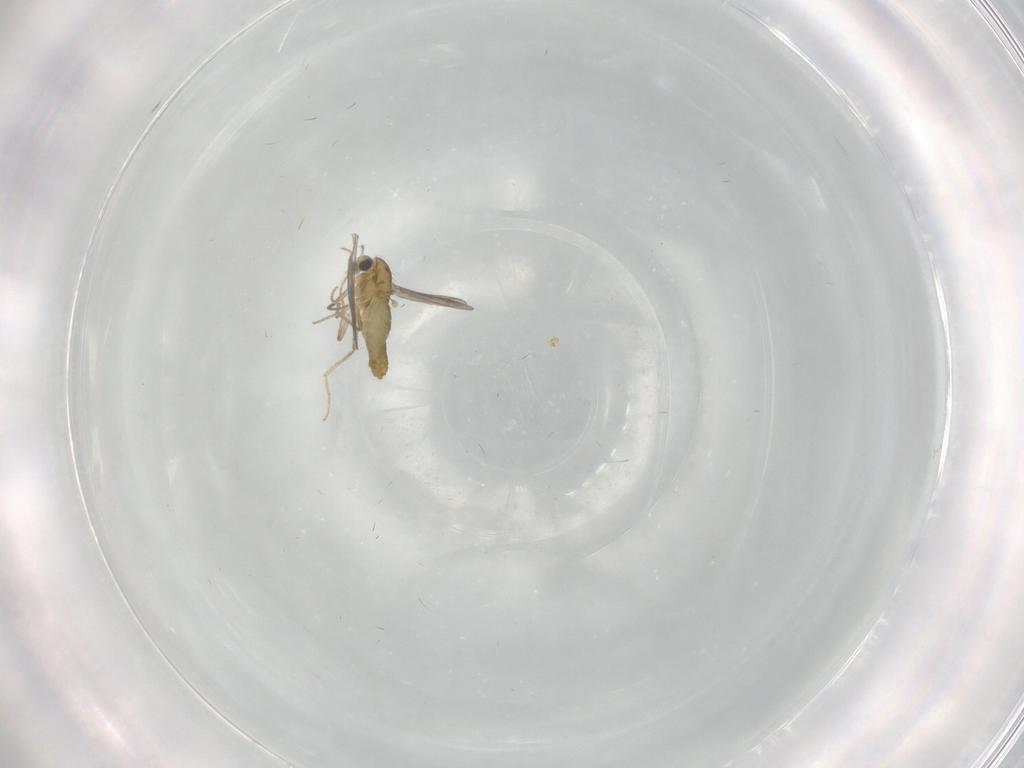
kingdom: Animalia
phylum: Arthropoda
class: Insecta
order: Diptera
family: Chironomidae
